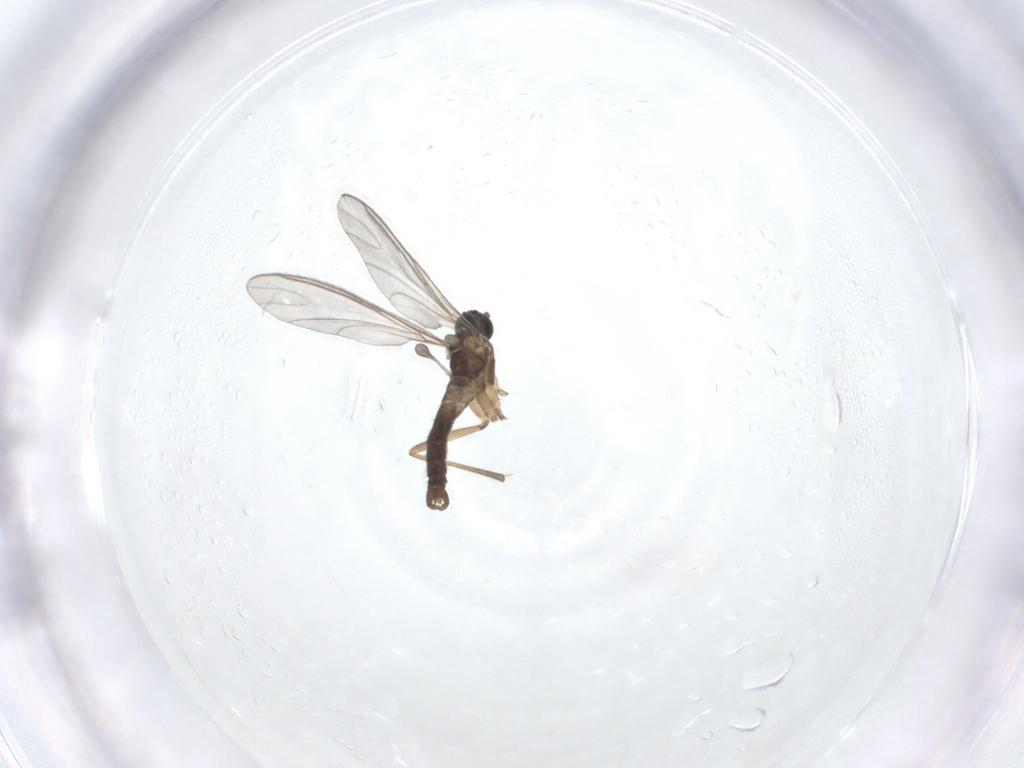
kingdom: Animalia
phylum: Arthropoda
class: Insecta
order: Diptera
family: Sciaridae
